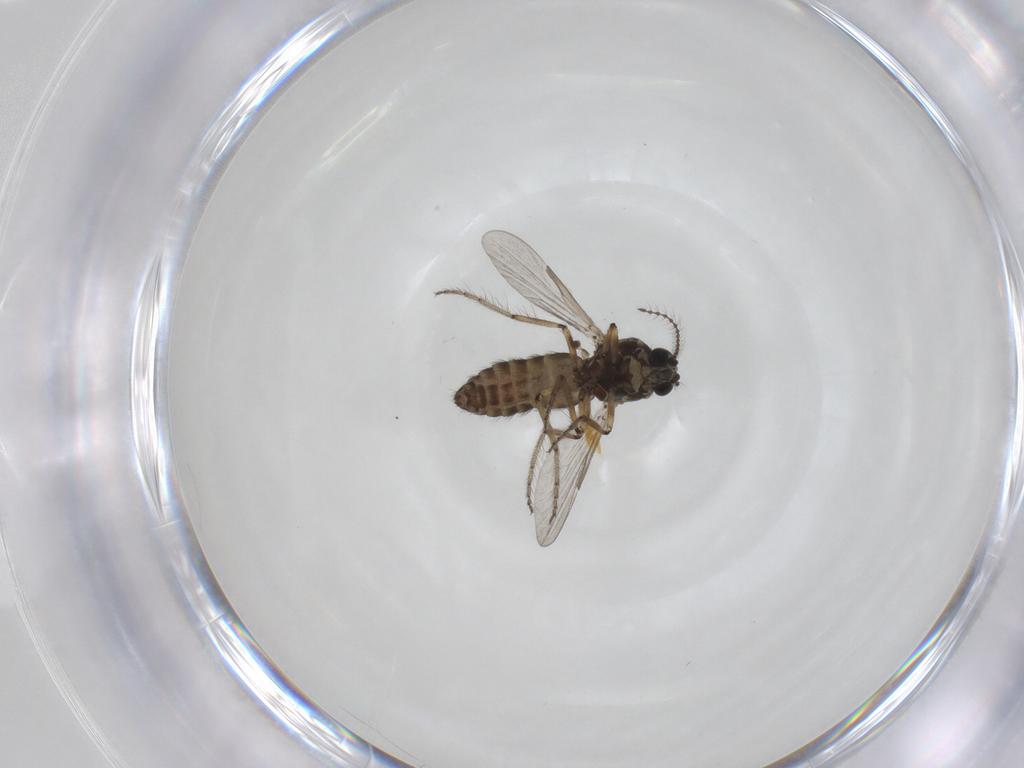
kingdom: Animalia
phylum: Arthropoda
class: Insecta
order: Diptera
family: Ceratopogonidae
